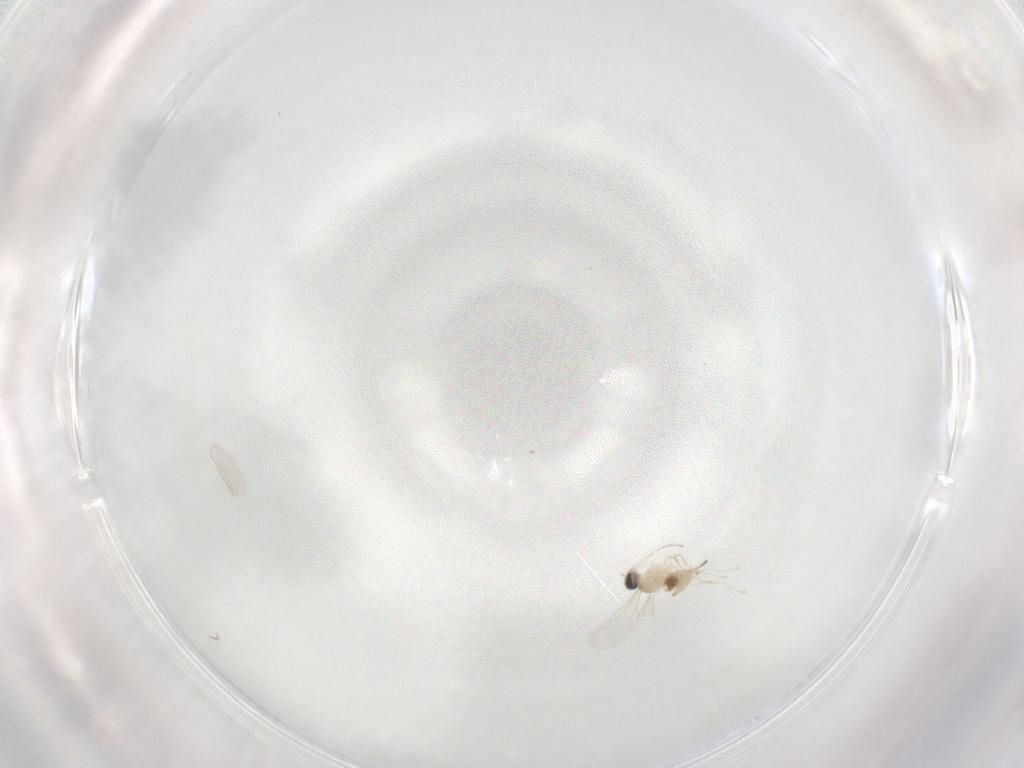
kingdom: Animalia
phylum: Arthropoda
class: Insecta
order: Diptera
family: Cecidomyiidae
